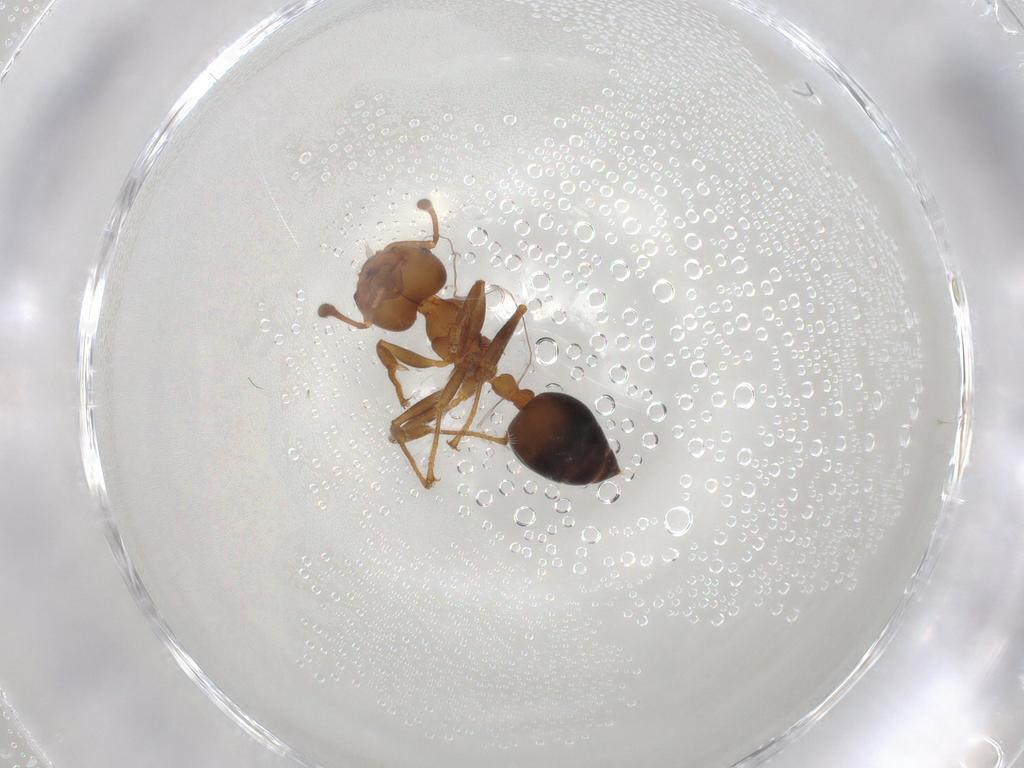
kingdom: Animalia
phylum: Arthropoda
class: Insecta
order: Hymenoptera
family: Formicidae
